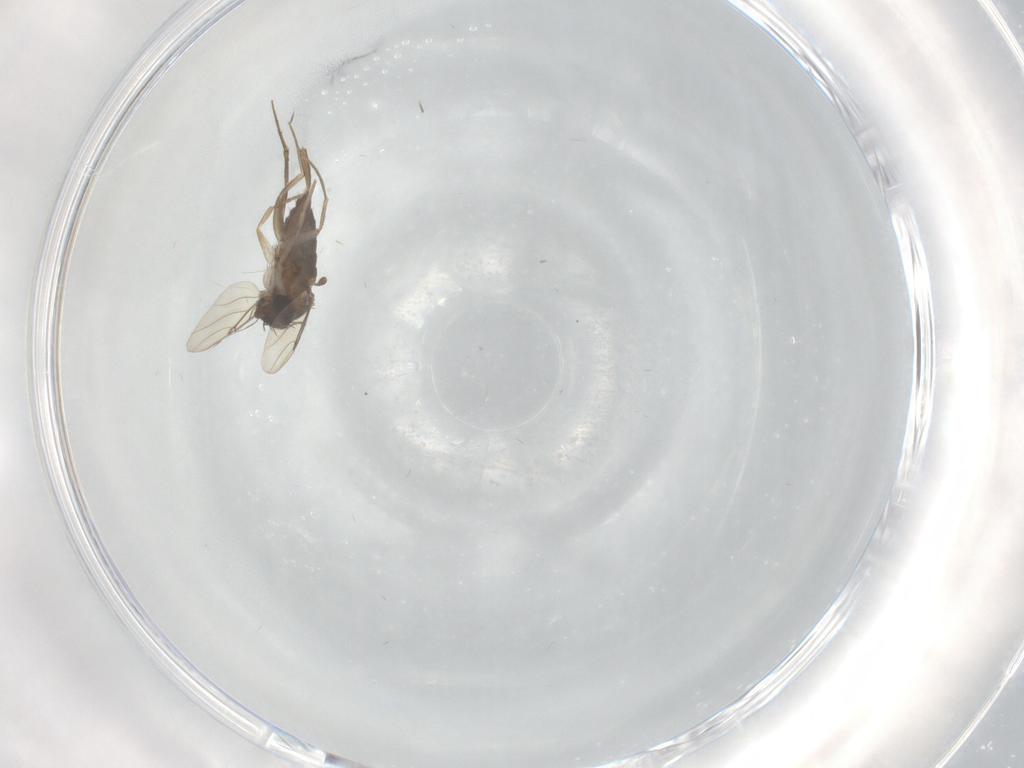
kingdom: Animalia
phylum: Arthropoda
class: Insecta
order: Diptera
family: Phoridae
